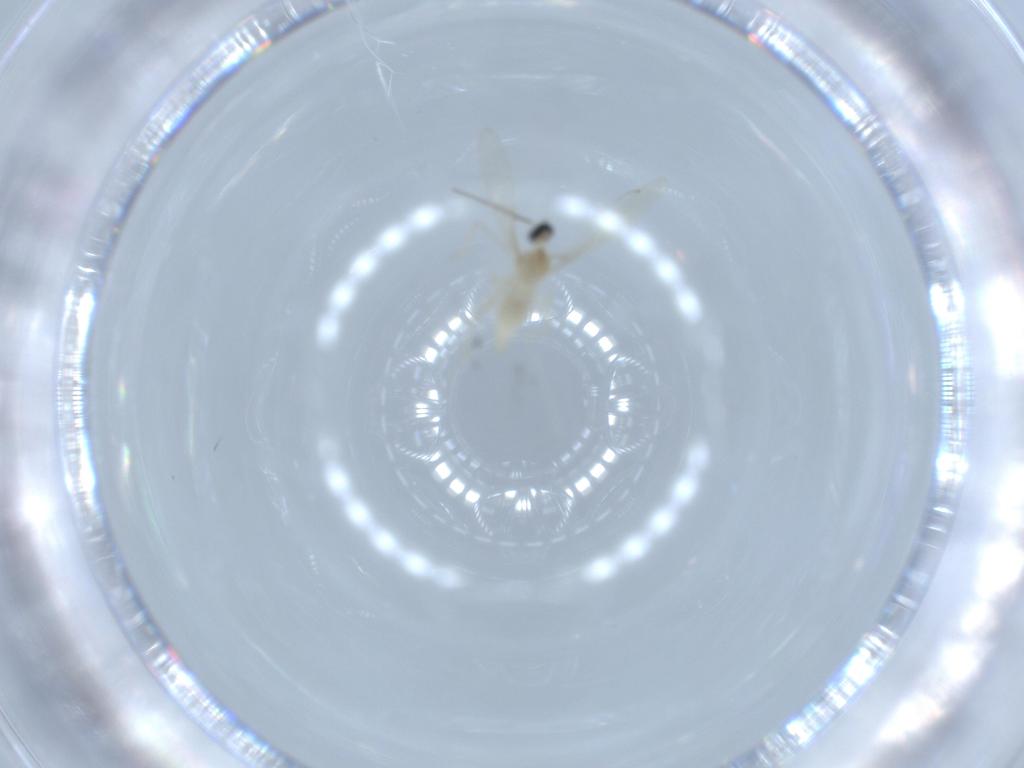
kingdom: Animalia
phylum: Arthropoda
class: Insecta
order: Diptera
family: Cecidomyiidae
